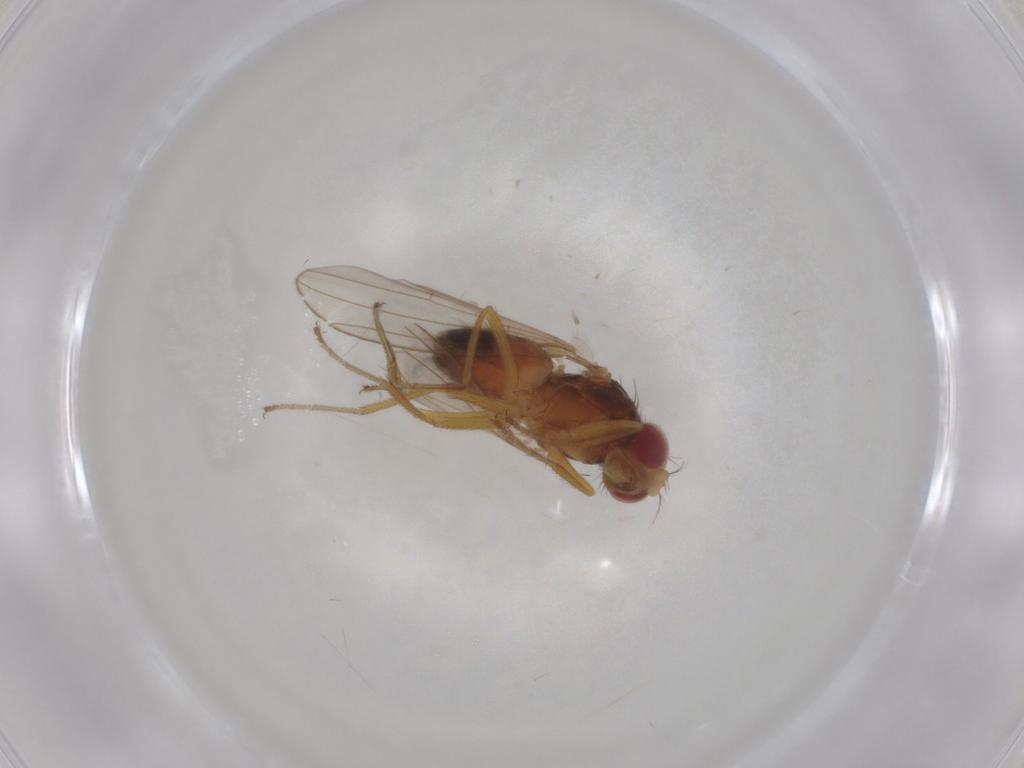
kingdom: Animalia
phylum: Arthropoda
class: Insecta
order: Diptera
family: Drosophilidae
